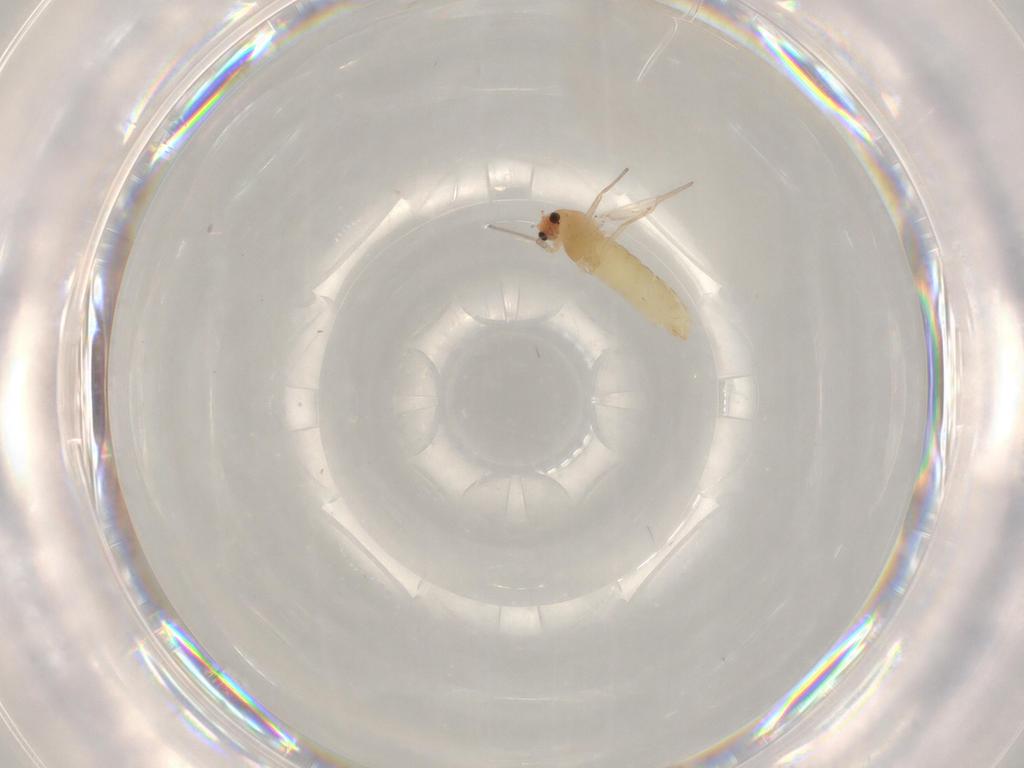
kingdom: Animalia
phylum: Arthropoda
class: Insecta
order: Diptera
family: Chironomidae
